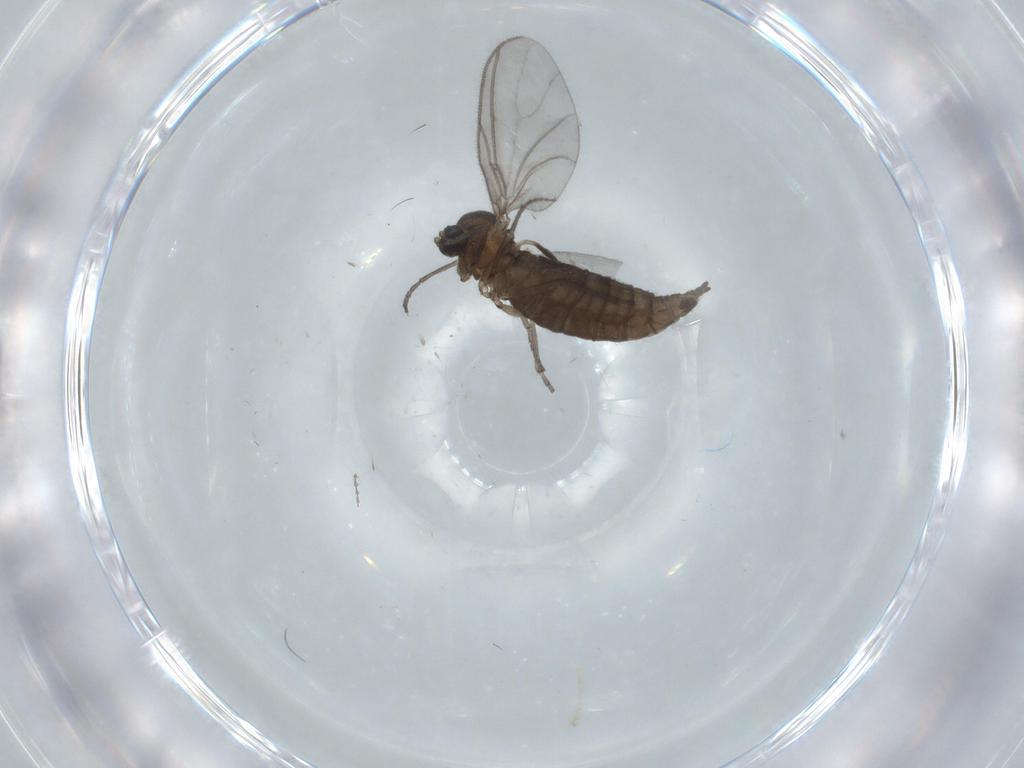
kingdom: Animalia
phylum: Arthropoda
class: Insecta
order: Diptera
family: Sciaridae
